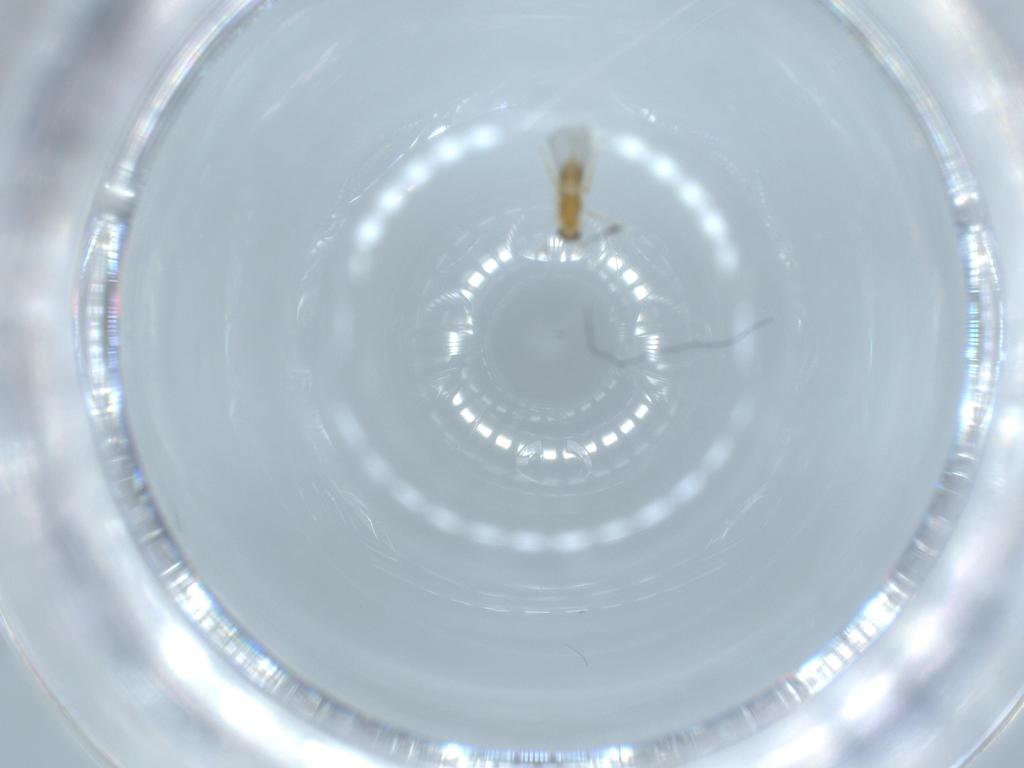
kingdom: Animalia
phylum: Arthropoda
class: Insecta
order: Hymenoptera
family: Mymaridae
